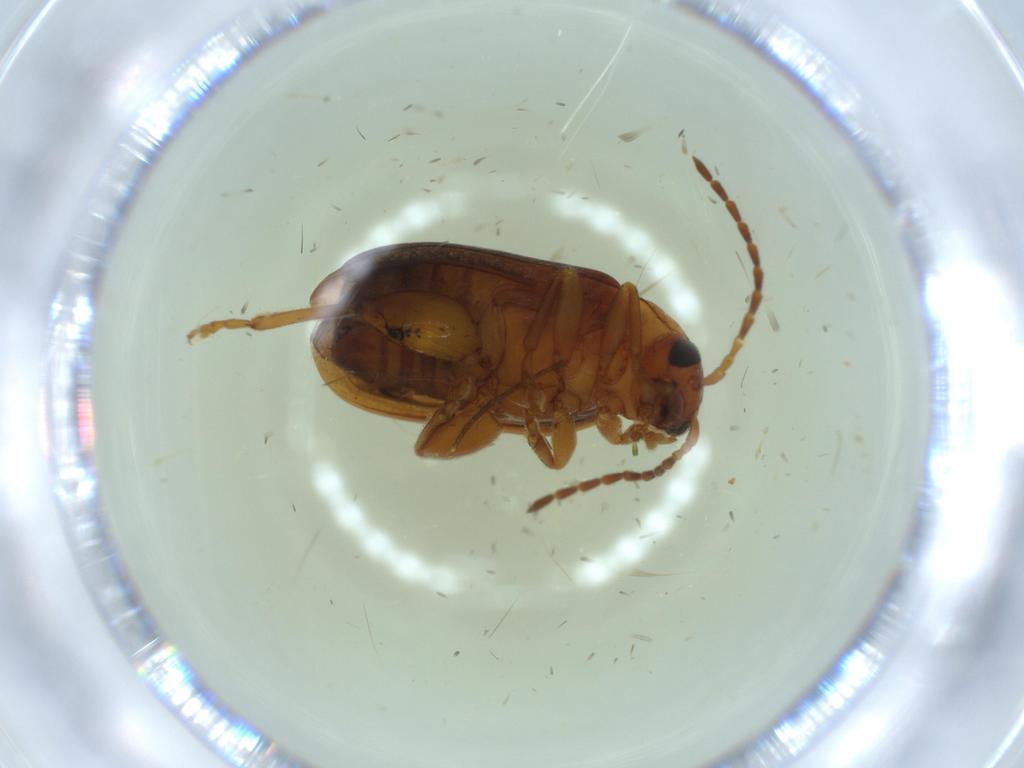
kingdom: Animalia
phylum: Arthropoda
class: Insecta
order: Coleoptera
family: Chrysomelidae
